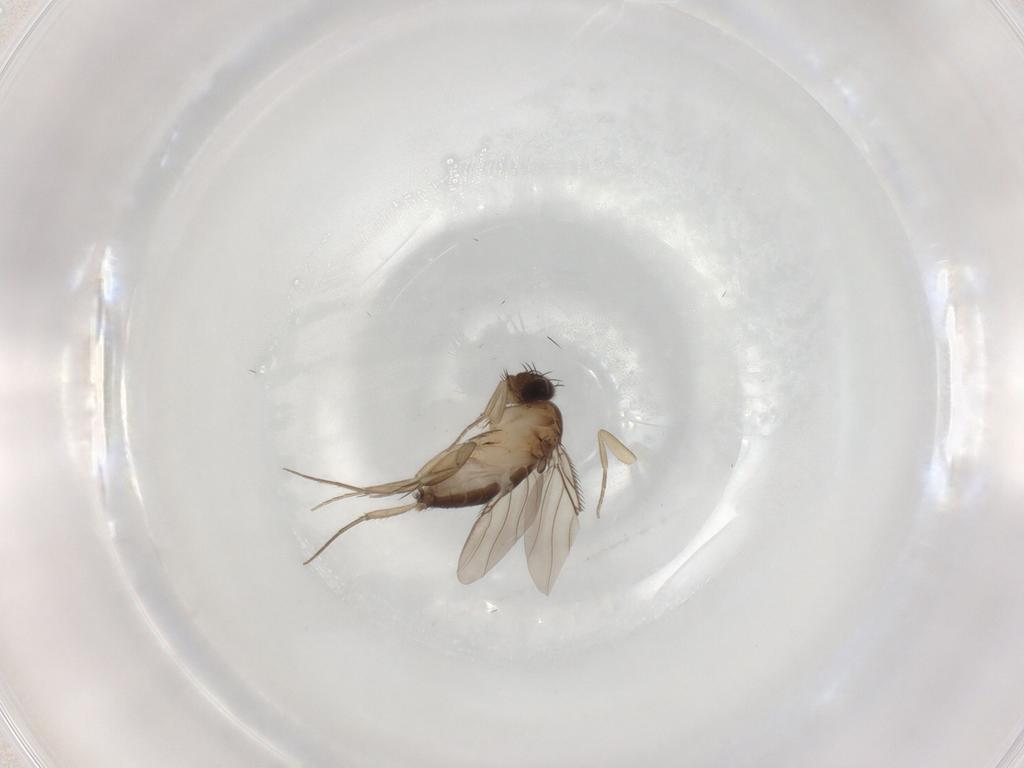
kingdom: Animalia
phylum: Arthropoda
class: Insecta
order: Diptera
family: Phoridae
